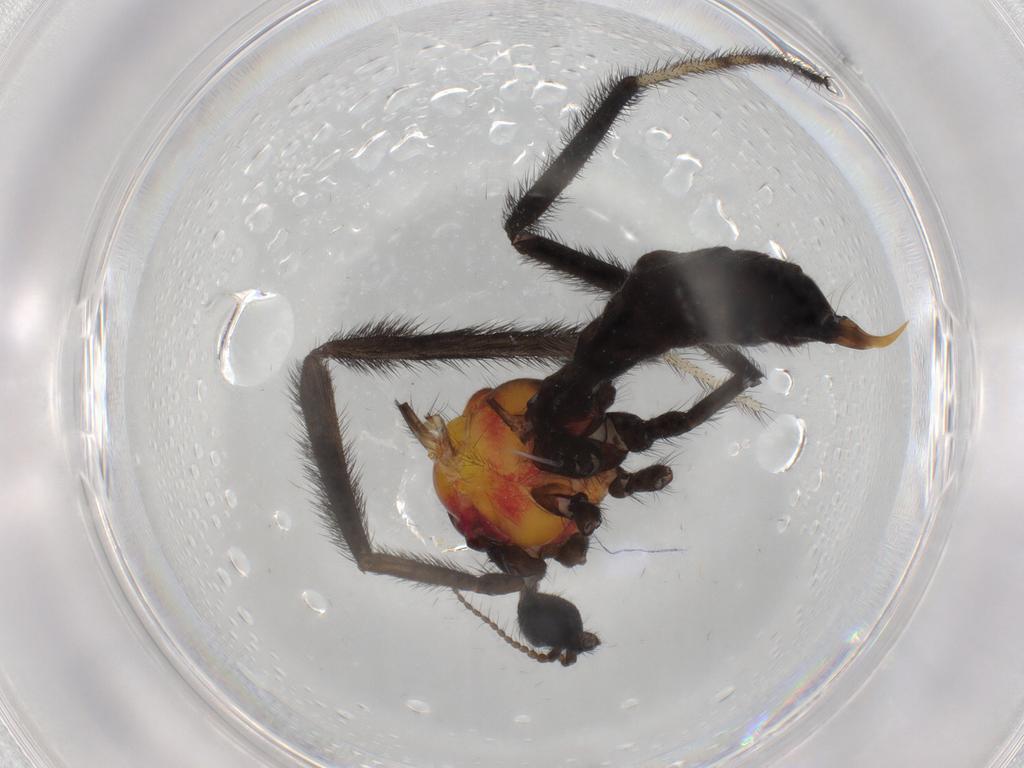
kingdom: Animalia
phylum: Arthropoda
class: Insecta
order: Diptera
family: Limoniidae
